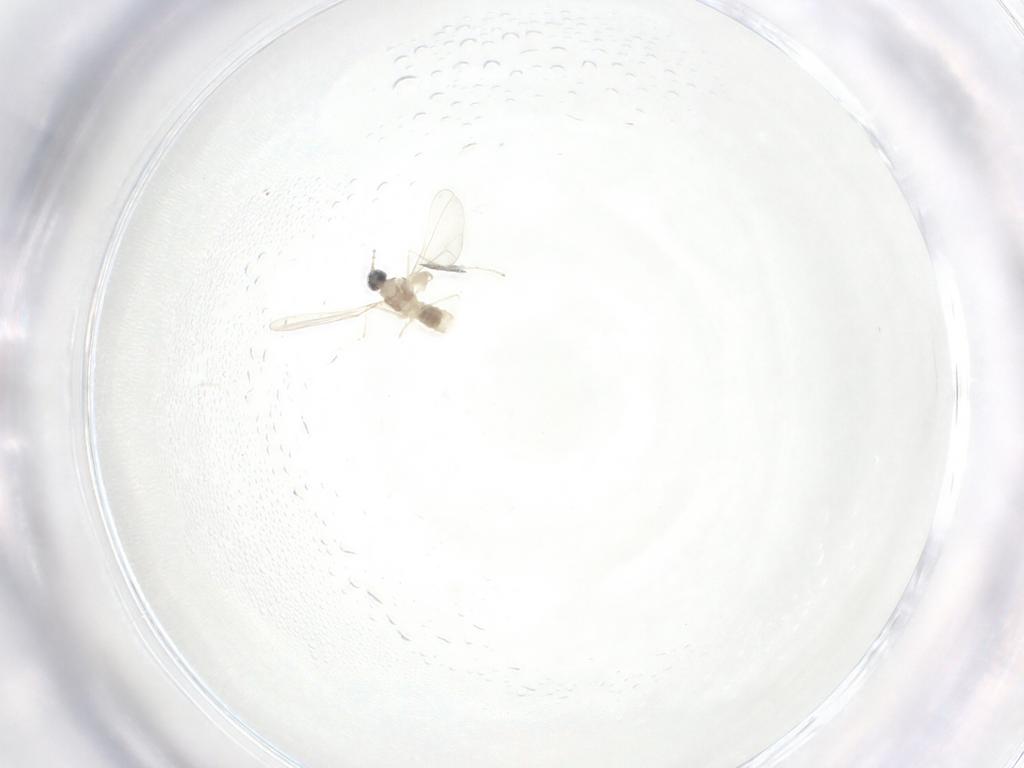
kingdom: Animalia
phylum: Arthropoda
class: Insecta
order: Diptera
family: Cecidomyiidae
